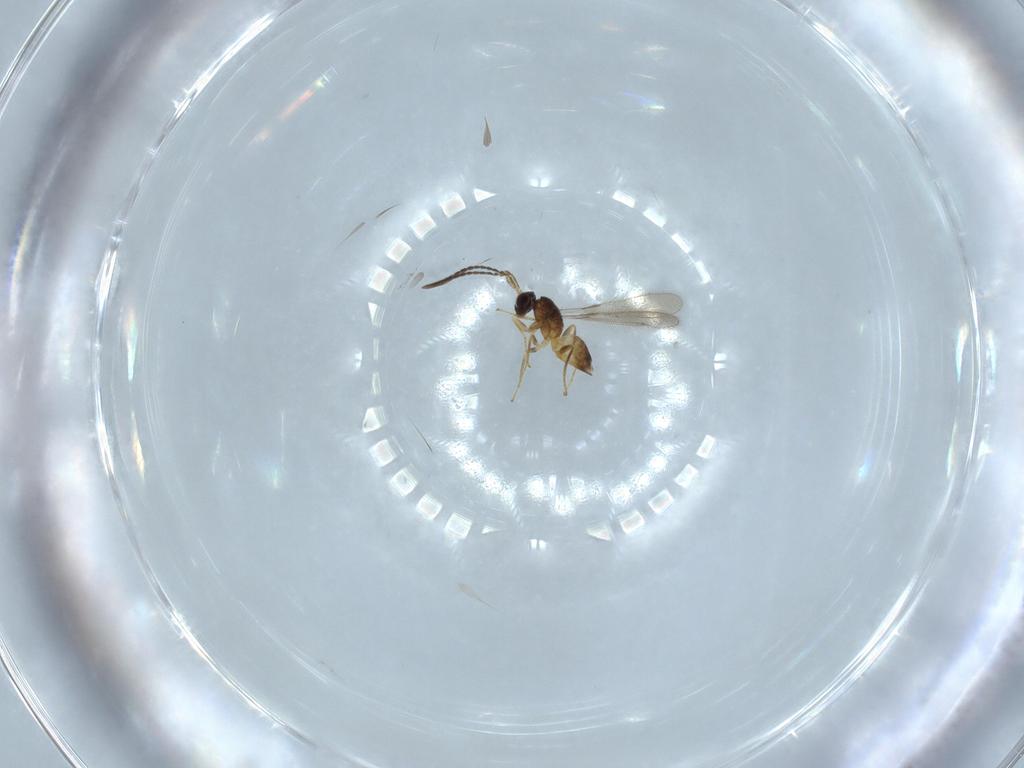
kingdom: Animalia
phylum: Arthropoda
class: Insecta
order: Hymenoptera
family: Mymaridae
